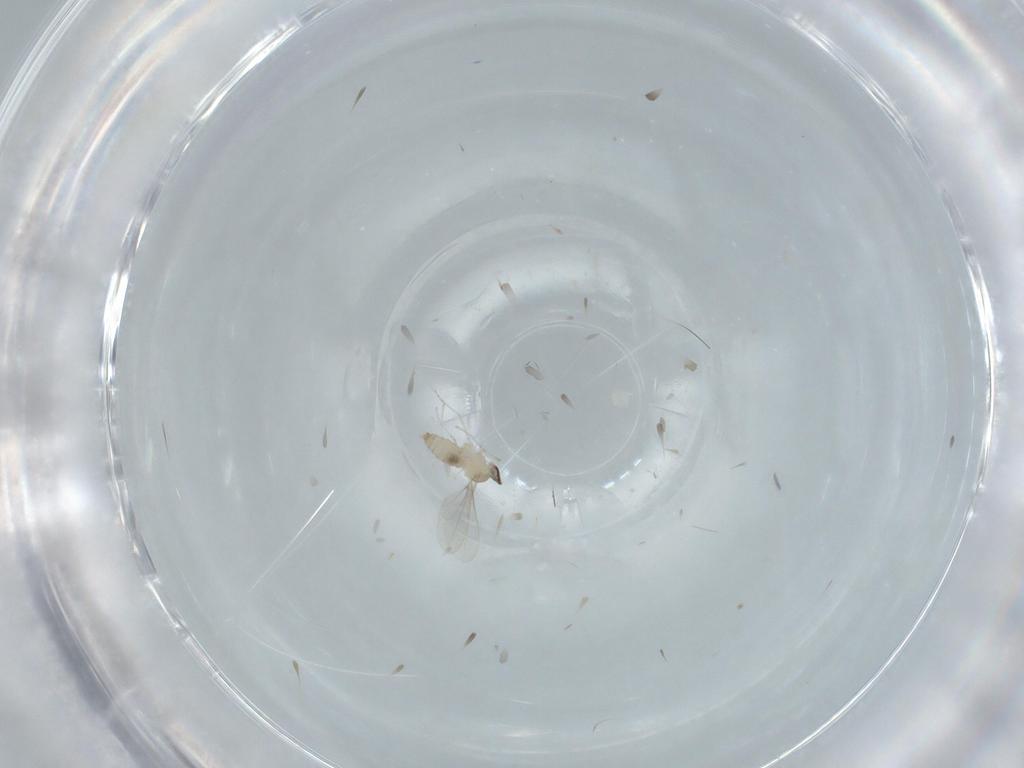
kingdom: Animalia
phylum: Arthropoda
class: Insecta
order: Diptera
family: Cecidomyiidae
